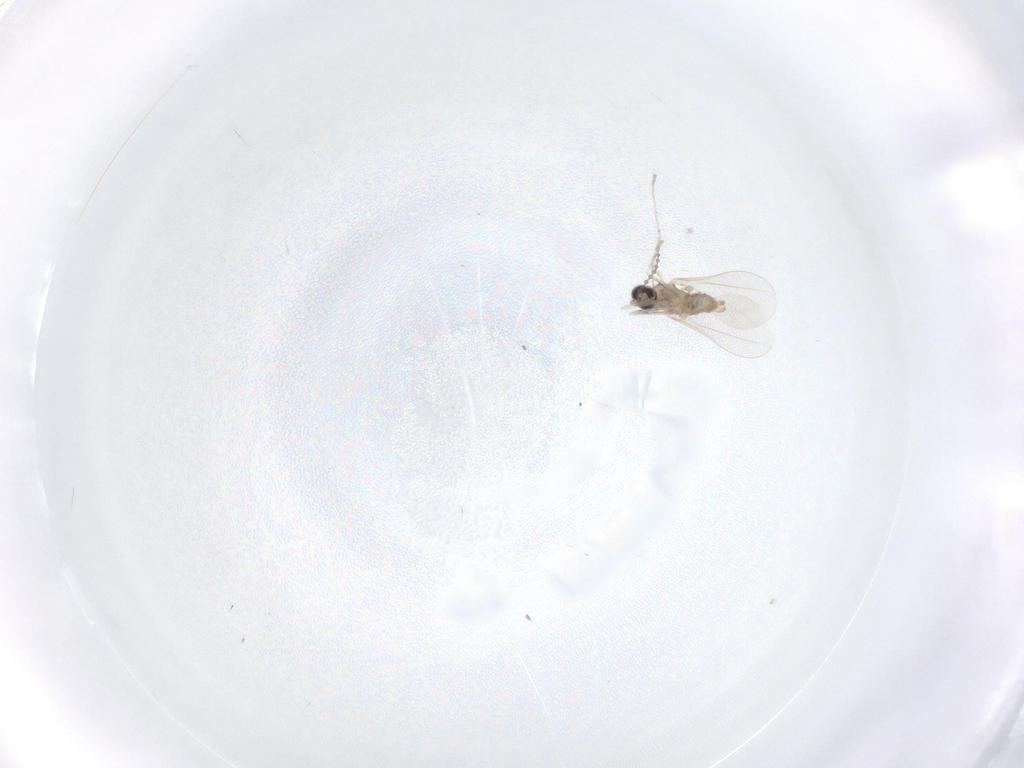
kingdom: Animalia
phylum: Arthropoda
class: Insecta
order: Diptera
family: Cecidomyiidae
